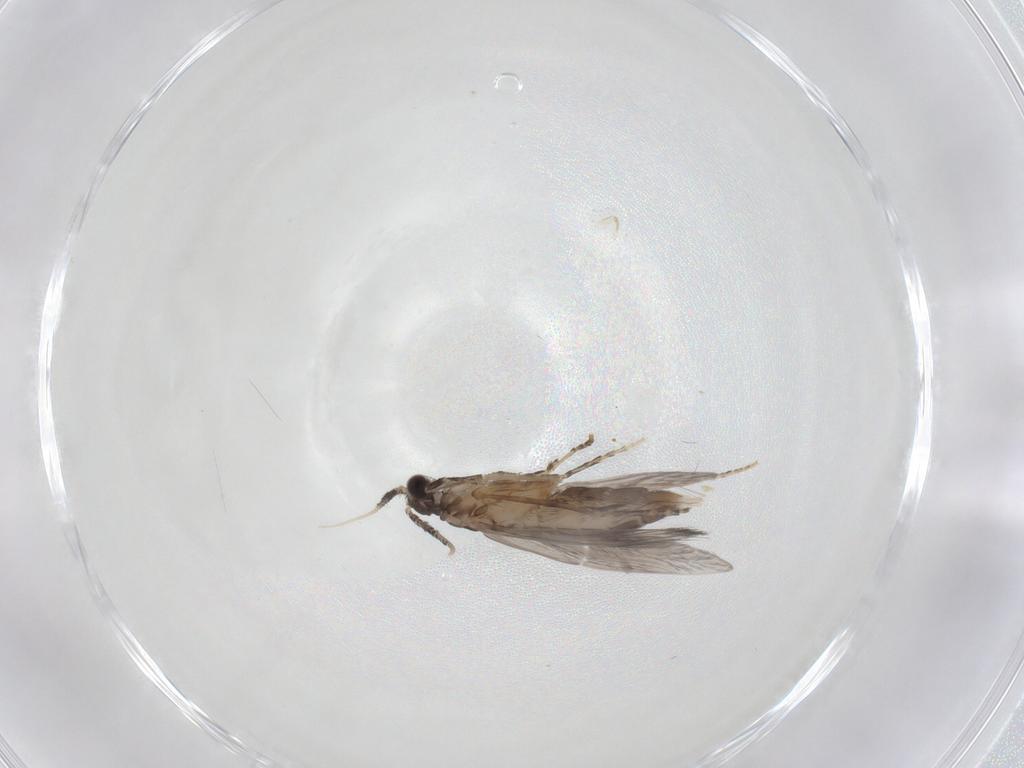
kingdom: Animalia
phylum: Arthropoda
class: Insecta
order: Trichoptera
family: Hydroptilidae
